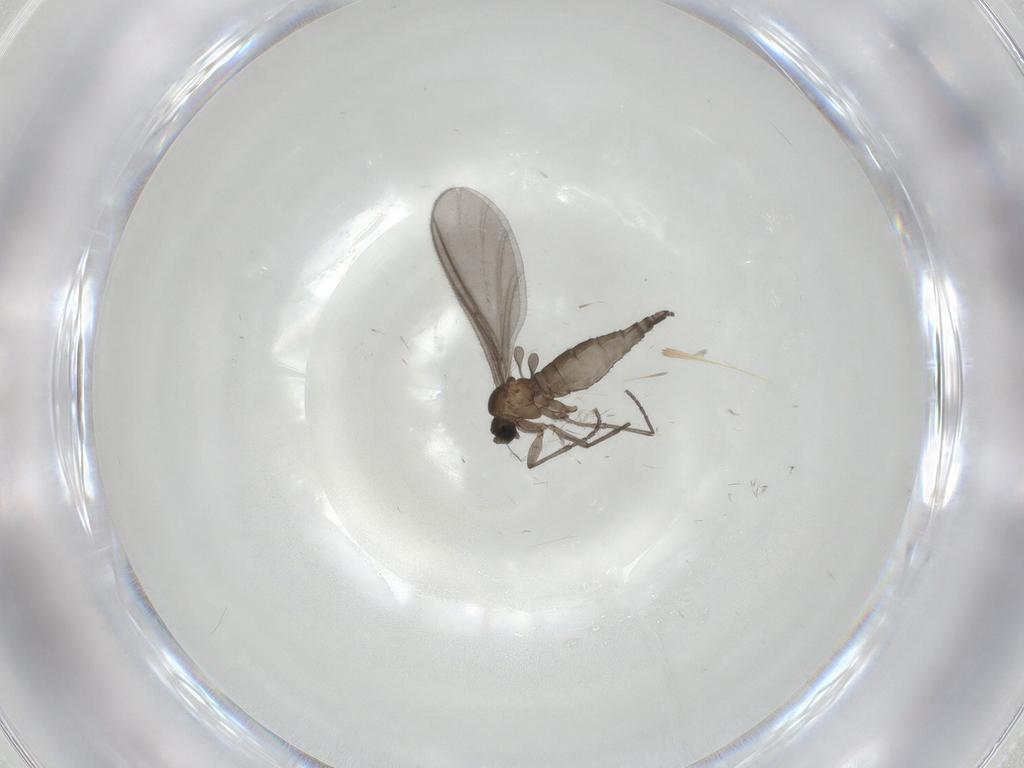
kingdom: Animalia
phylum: Arthropoda
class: Insecta
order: Diptera
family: Sciaridae
